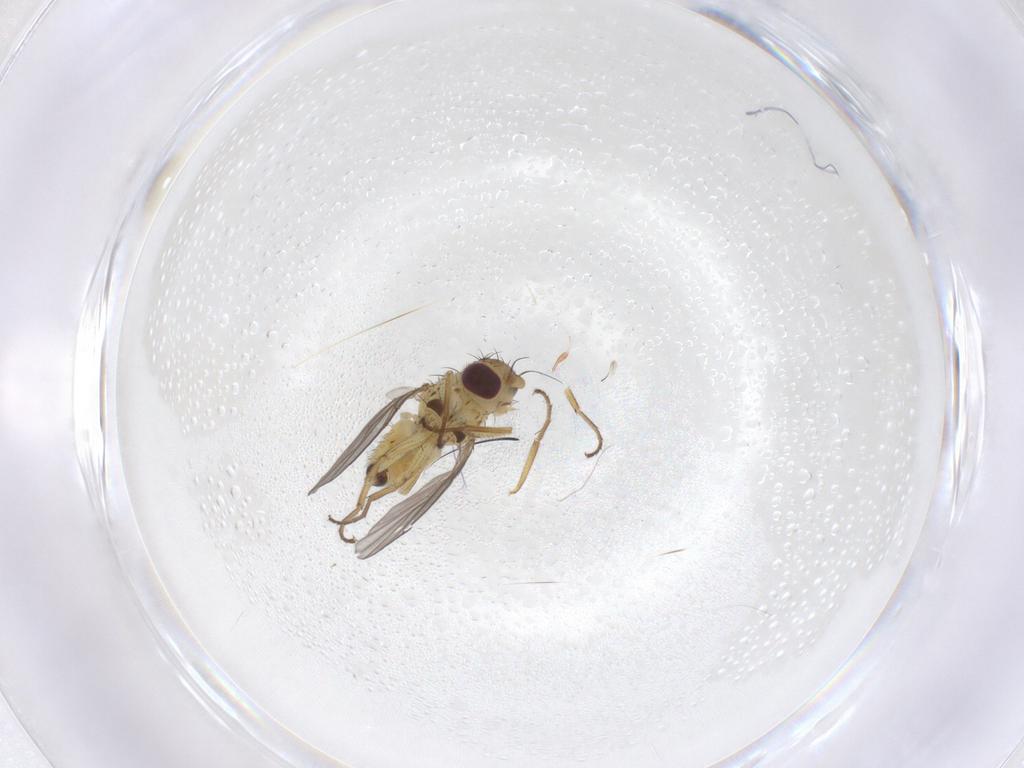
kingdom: Animalia
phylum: Arthropoda
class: Insecta
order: Diptera
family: Agromyzidae
